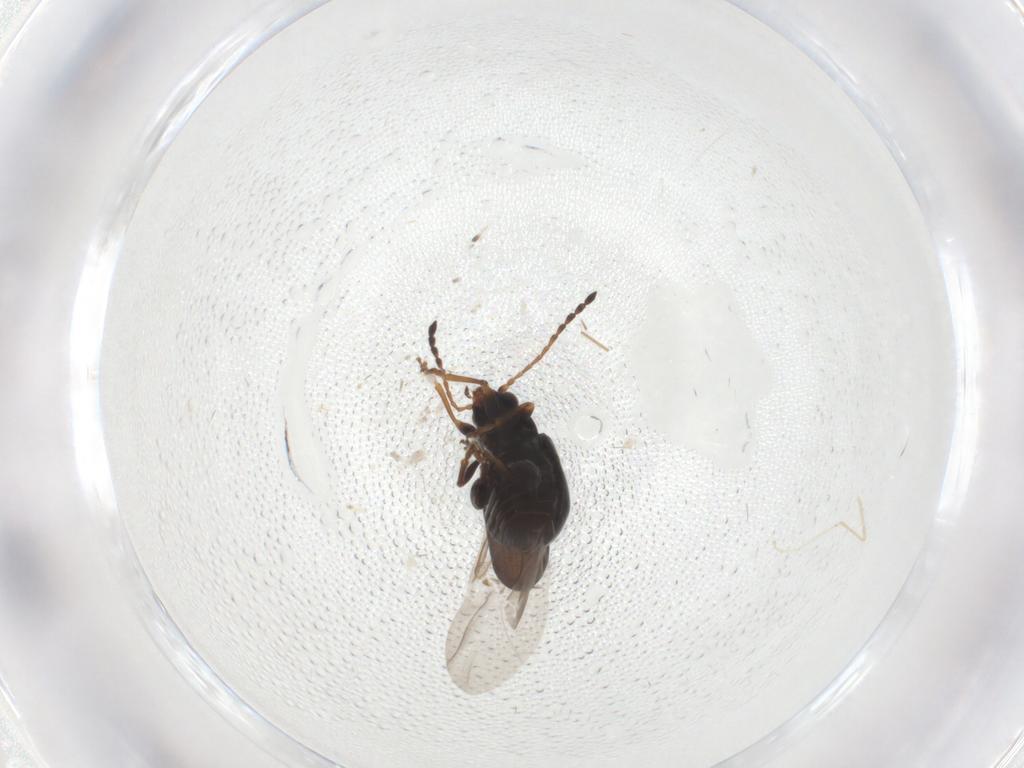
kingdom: Animalia
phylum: Arthropoda
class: Insecta
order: Coleoptera
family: Chrysomelidae
